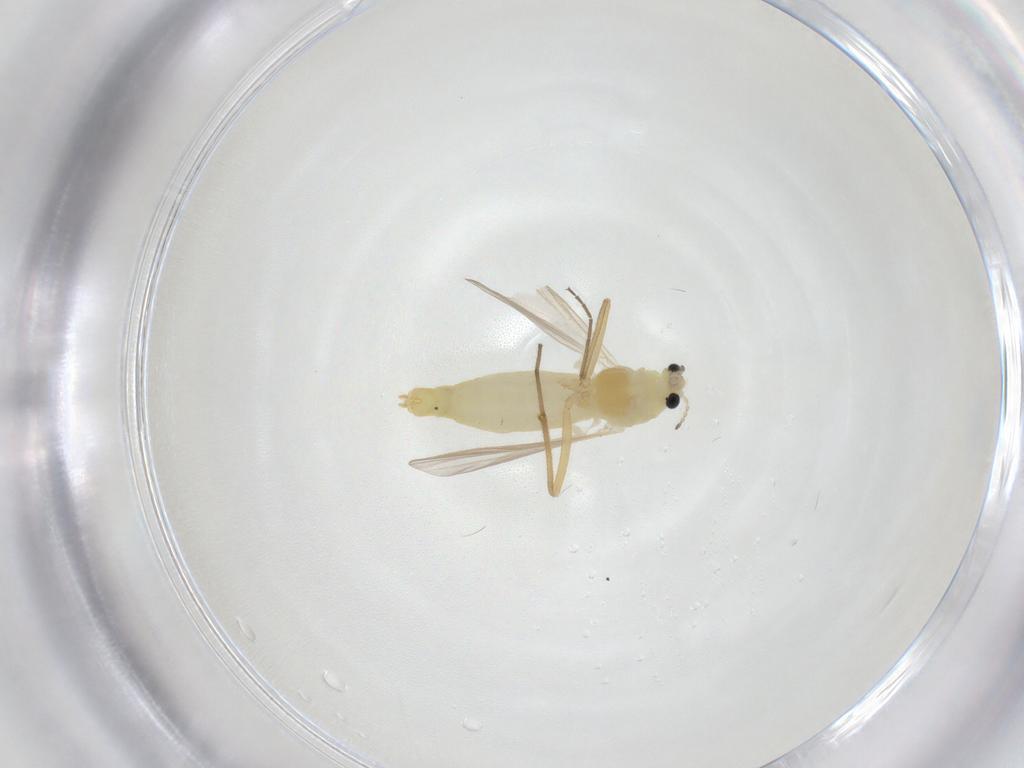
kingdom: Animalia
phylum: Arthropoda
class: Insecta
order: Diptera
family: Chironomidae
